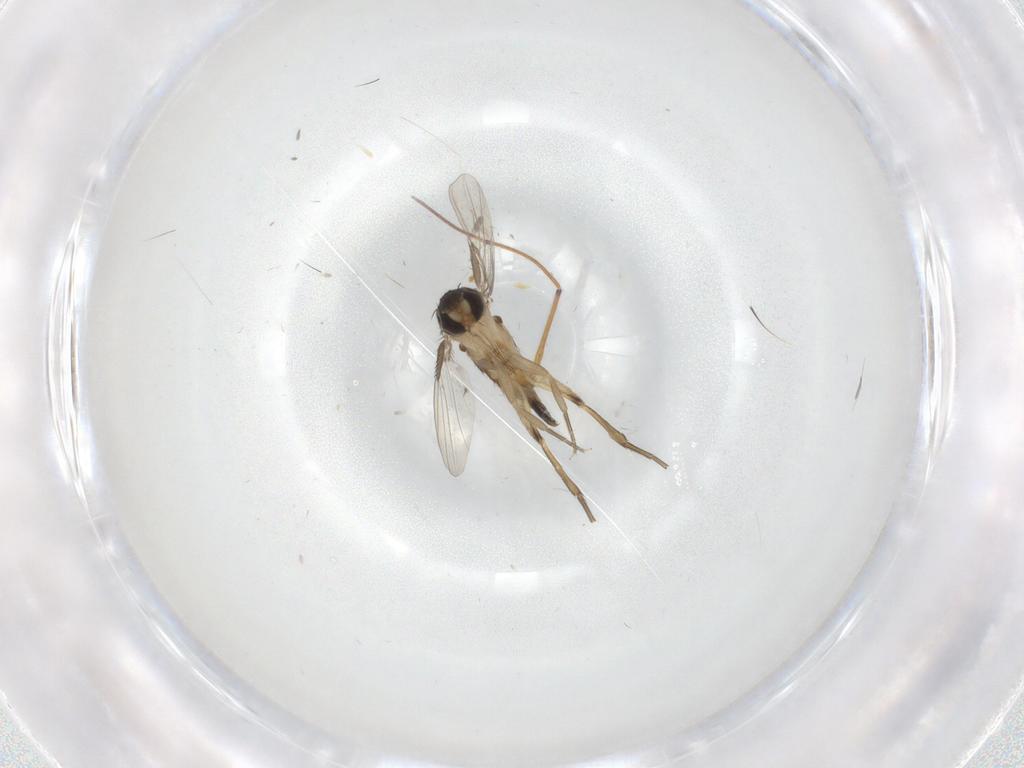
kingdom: Animalia
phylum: Arthropoda
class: Insecta
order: Diptera
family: Phoridae
